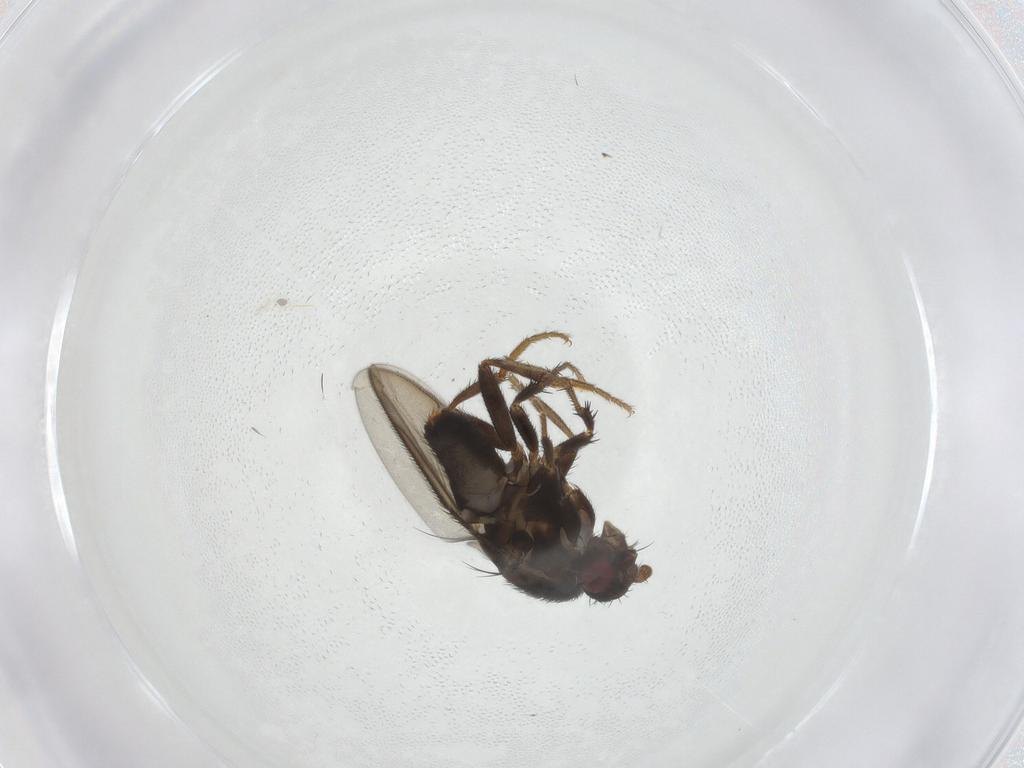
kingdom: Animalia
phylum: Arthropoda
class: Insecta
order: Diptera
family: Sphaeroceridae
